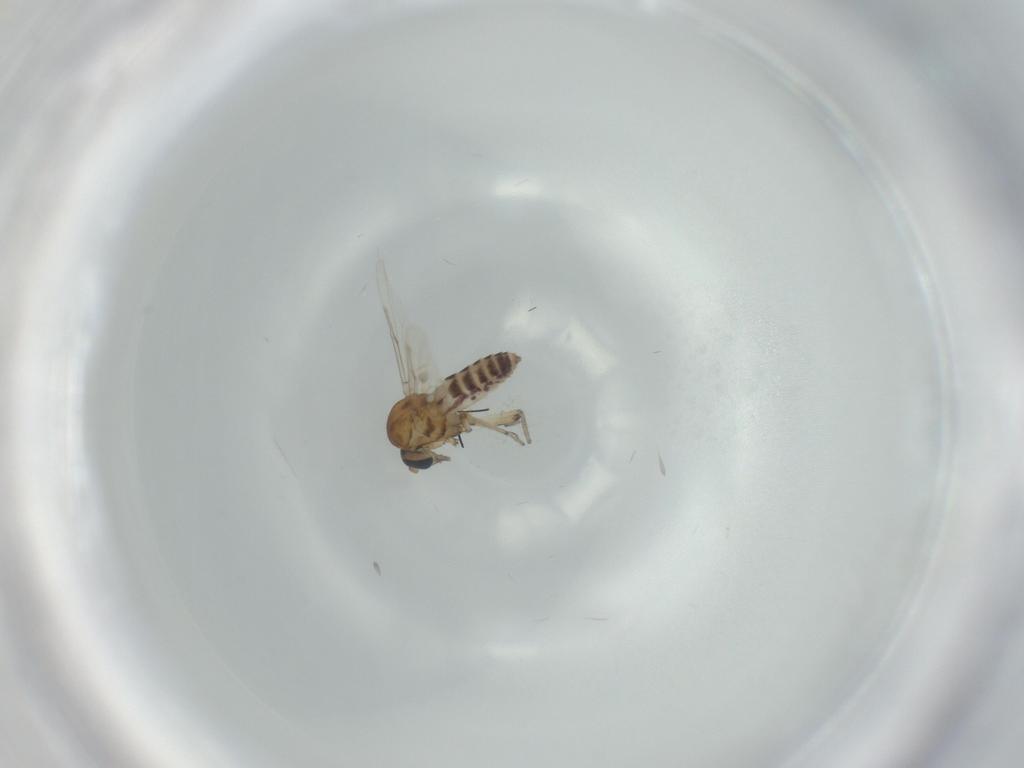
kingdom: Animalia
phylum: Arthropoda
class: Insecta
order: Diptera
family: Ceratopogonidae
